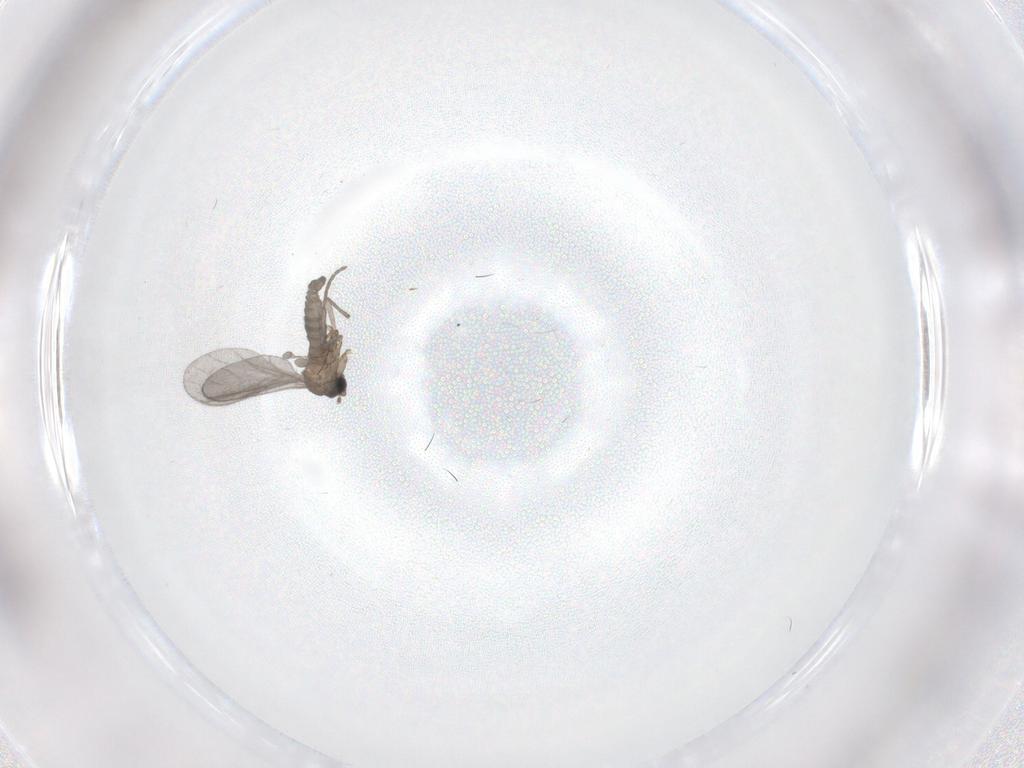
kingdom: Animalia
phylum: Arthropoda
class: Insecta
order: Diptera
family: Sciaridae
